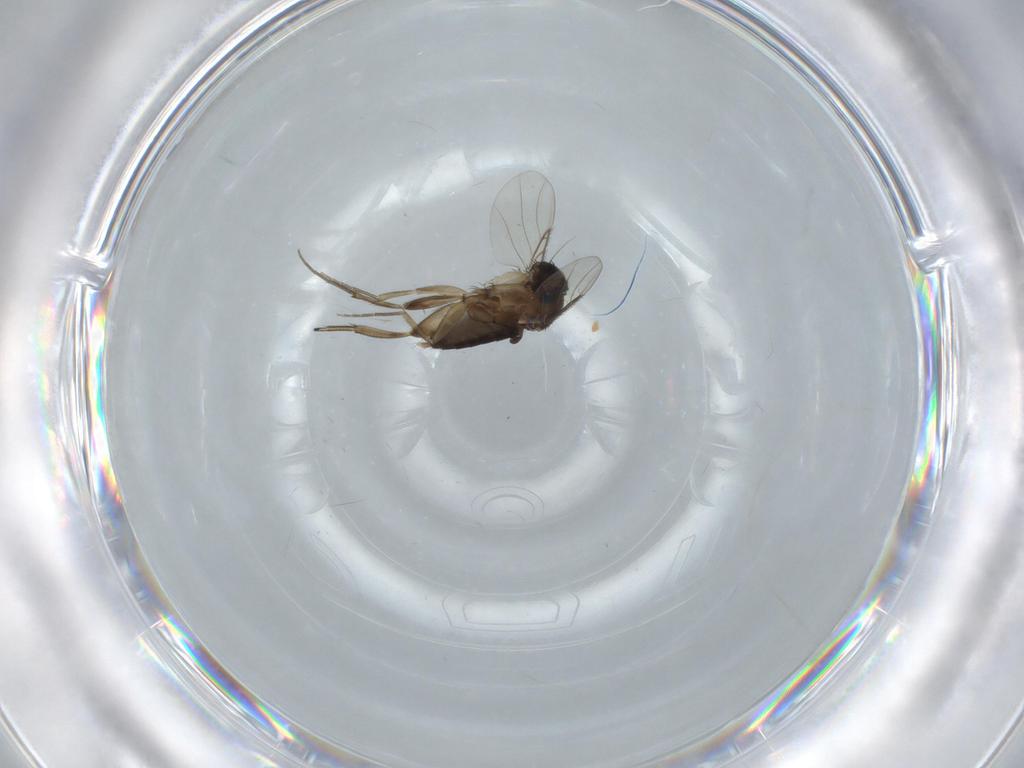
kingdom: Animalia
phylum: Arthropoda
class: Insecta
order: Diptera
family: Phoridae
